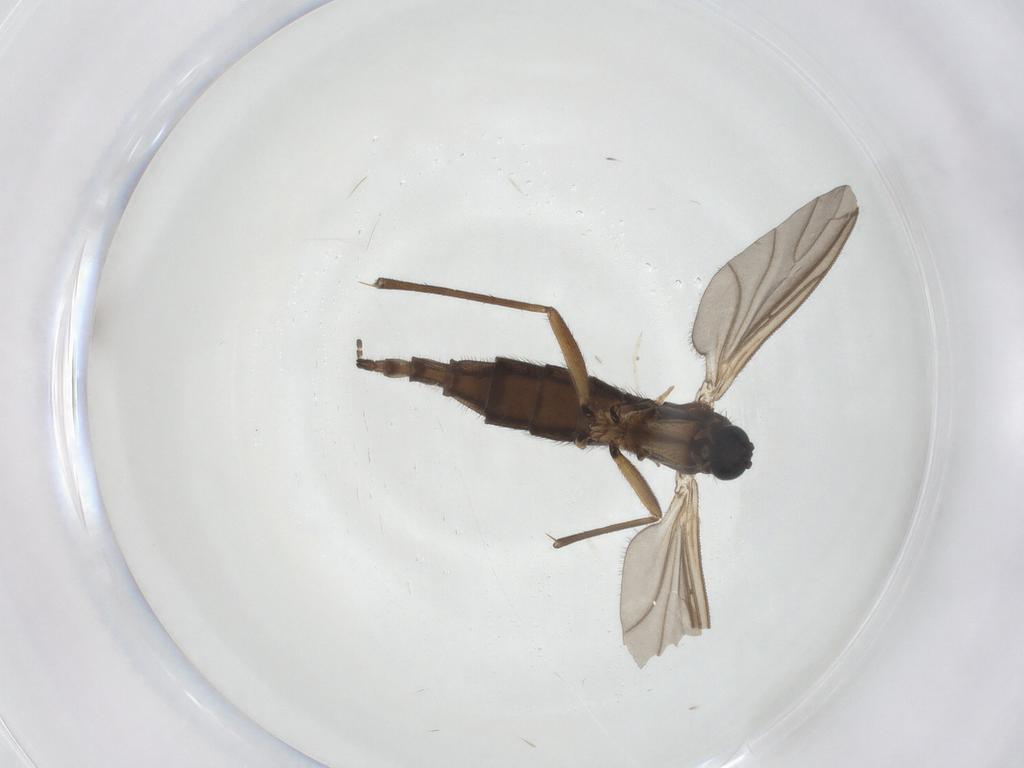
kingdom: Animalia
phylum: Arthropoda
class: Insecta
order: Diptera
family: Sciaridae
